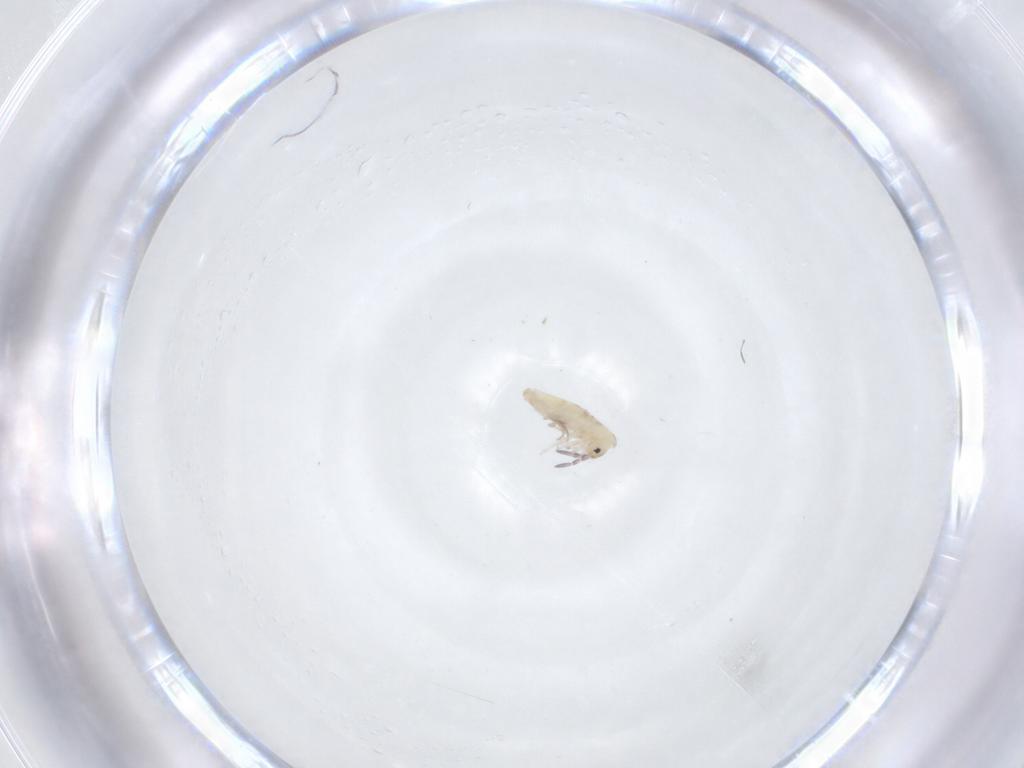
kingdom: Animalia
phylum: Arthropoda
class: Collembola
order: Entomobryomorpha
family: Entomobryidae
